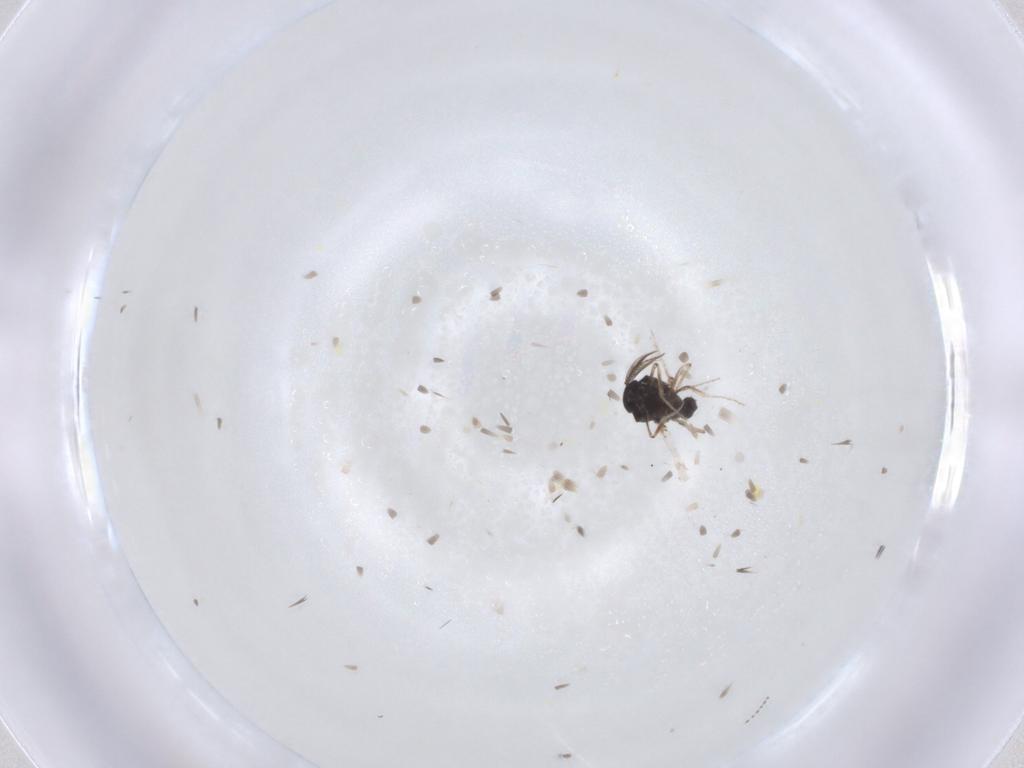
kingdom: Animalia
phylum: Arthropoda
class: Insecta
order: Diptera
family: Ceratopogonidae
